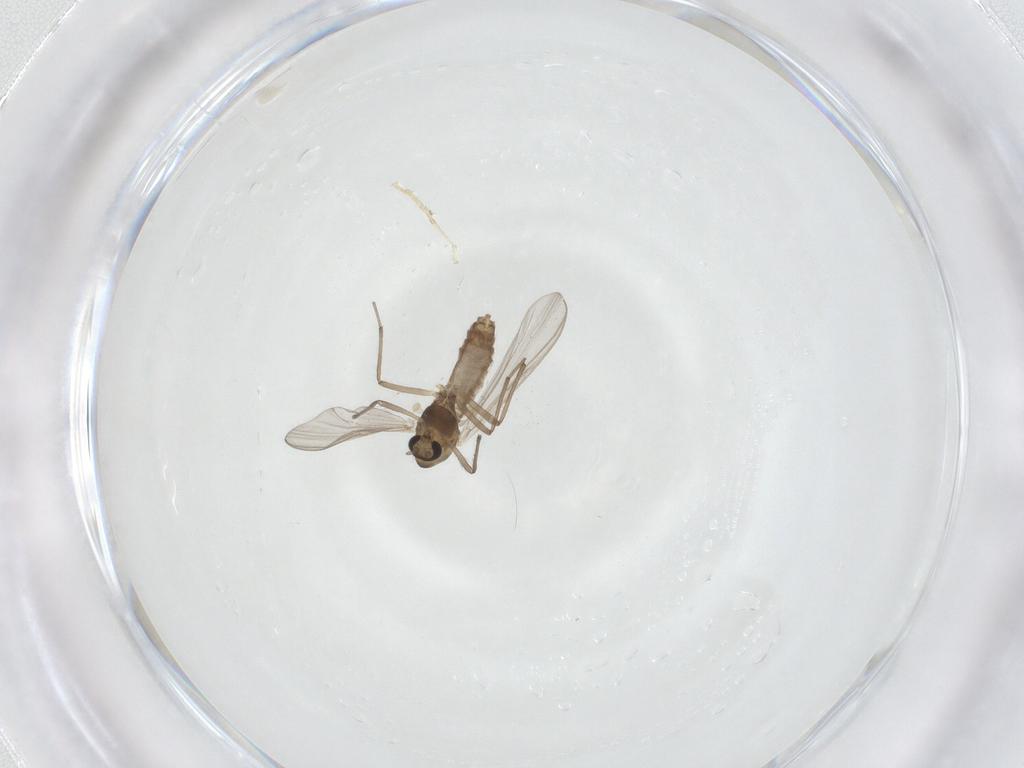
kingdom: Animalia
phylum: Arthropoda
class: Insecta
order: Diptera
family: Chironomidae
